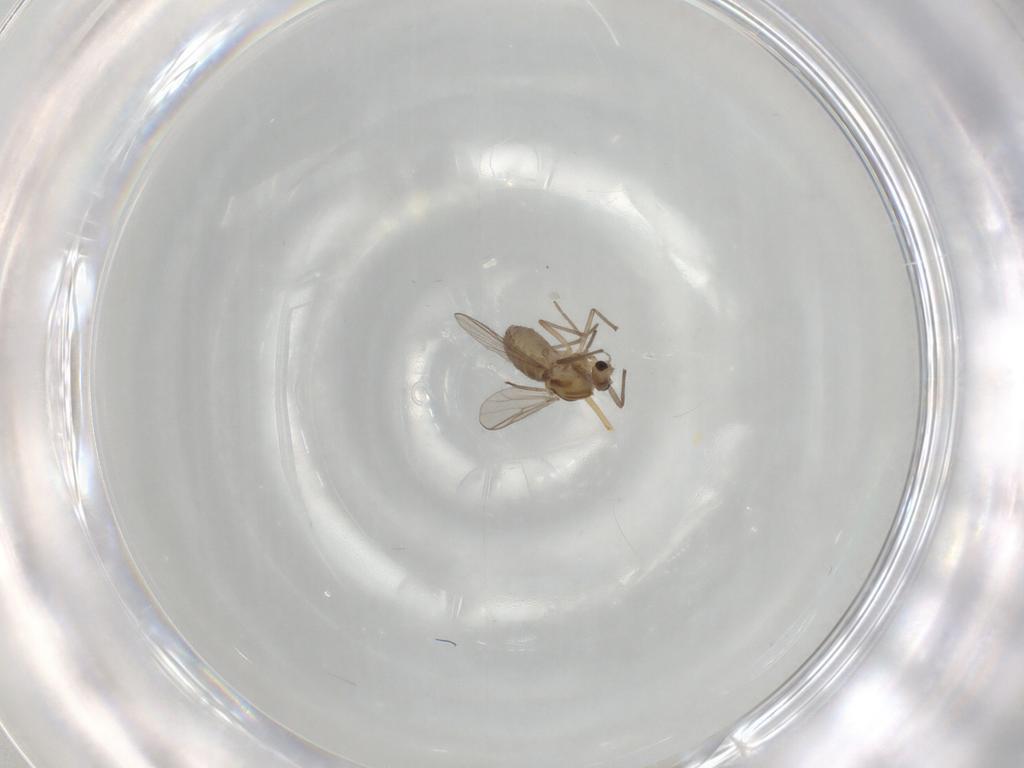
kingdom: Animalia
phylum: Arthropoda
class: Insecta
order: Diptera
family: Chironomidae
